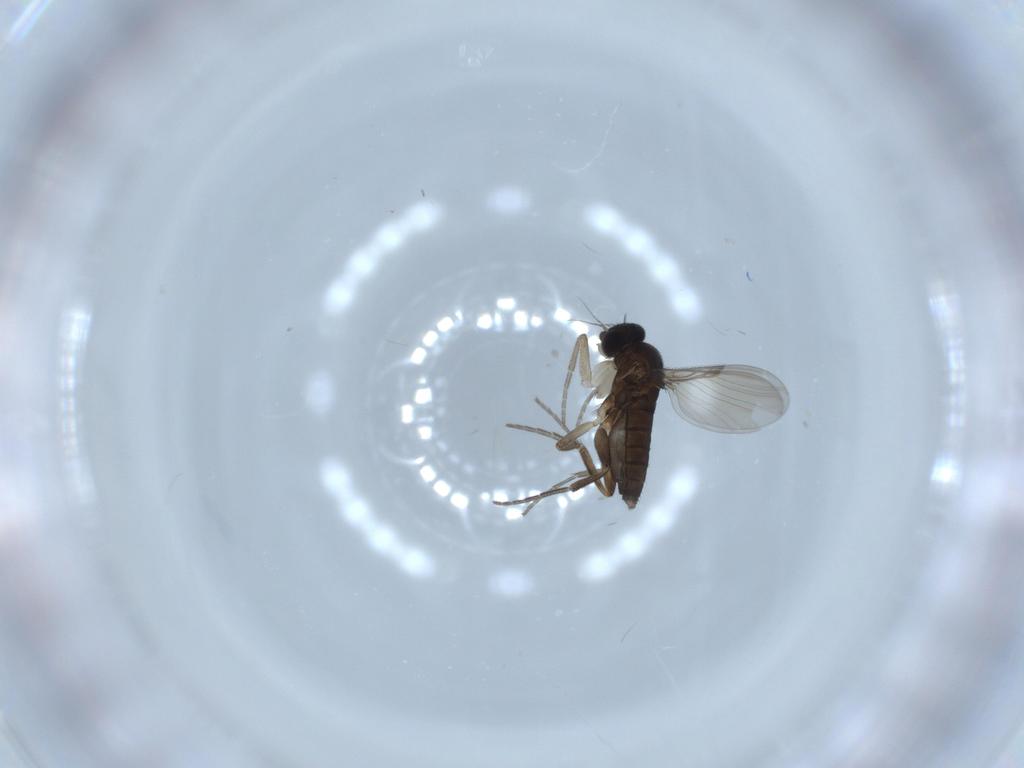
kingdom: Animalia
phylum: Arthropoda
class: Insecta
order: Diptera
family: Phoridae
